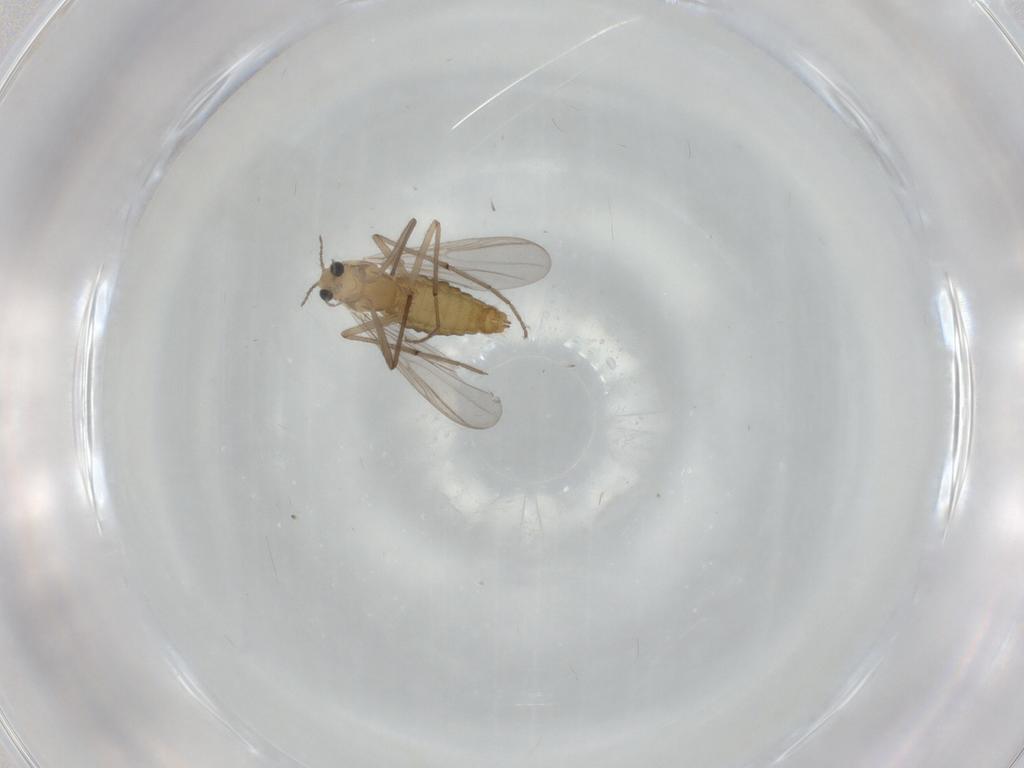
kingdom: Animalia
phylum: Arthropoda
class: Insecta
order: Diptera
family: Chironomidae
